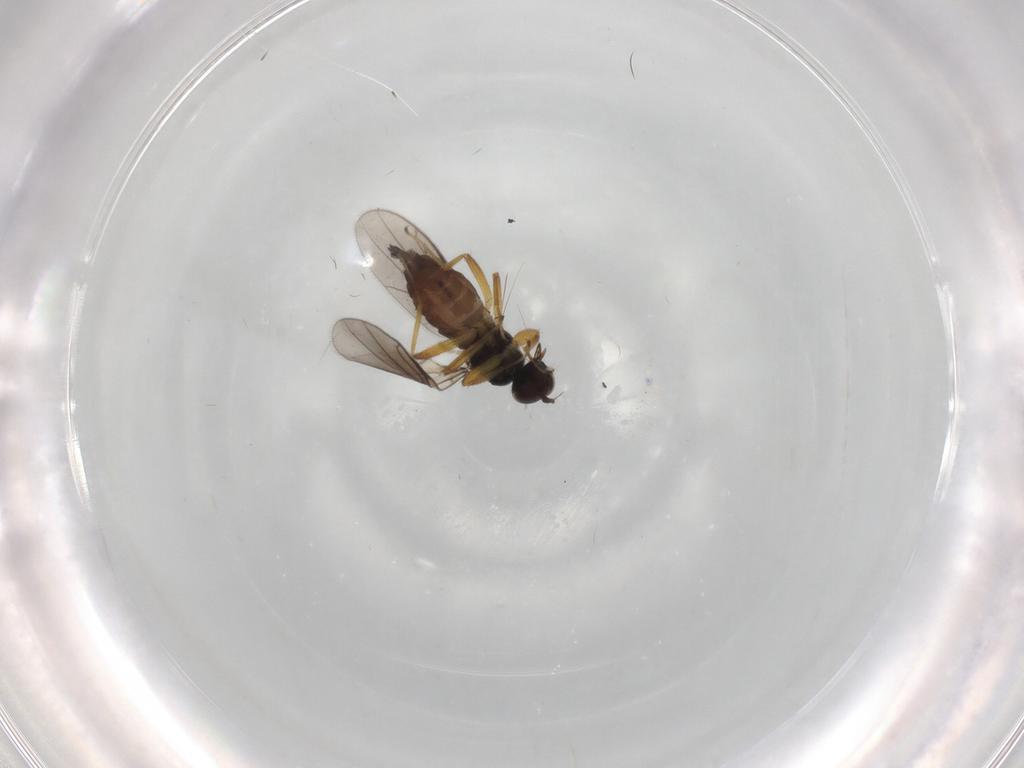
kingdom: Animalia
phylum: Arthropoda
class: Insecta
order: Diptera
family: Hybotidae
